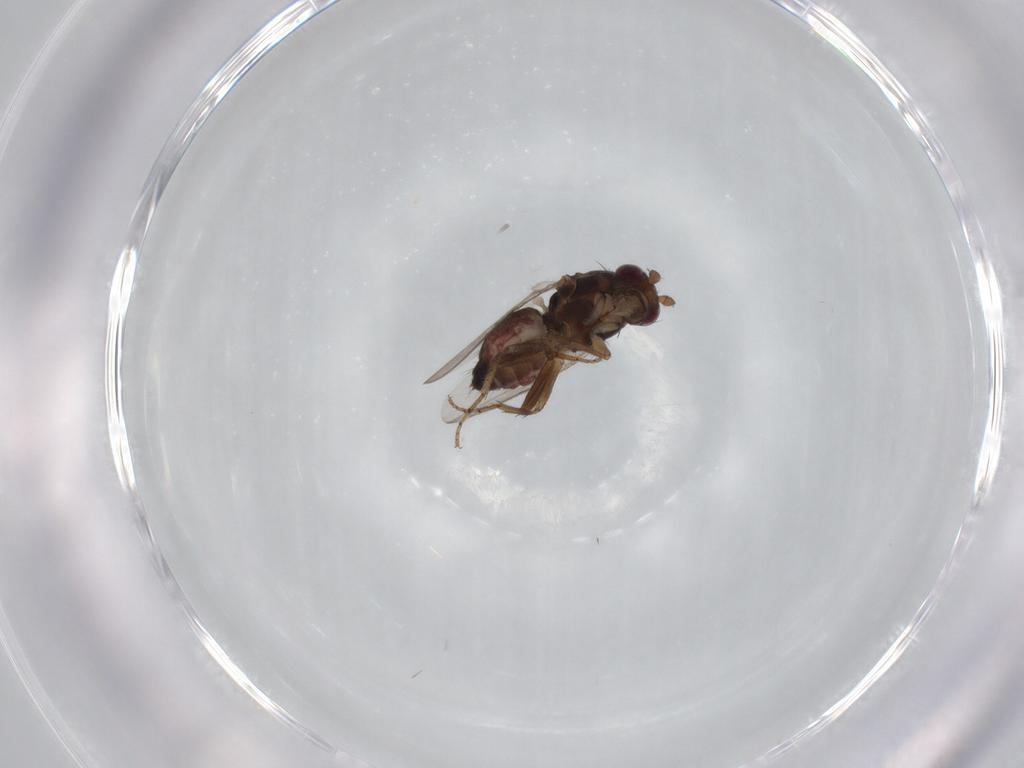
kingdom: Animalia
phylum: Arthropoda
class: Insecta
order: Diptera
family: Sphaeroceridae
